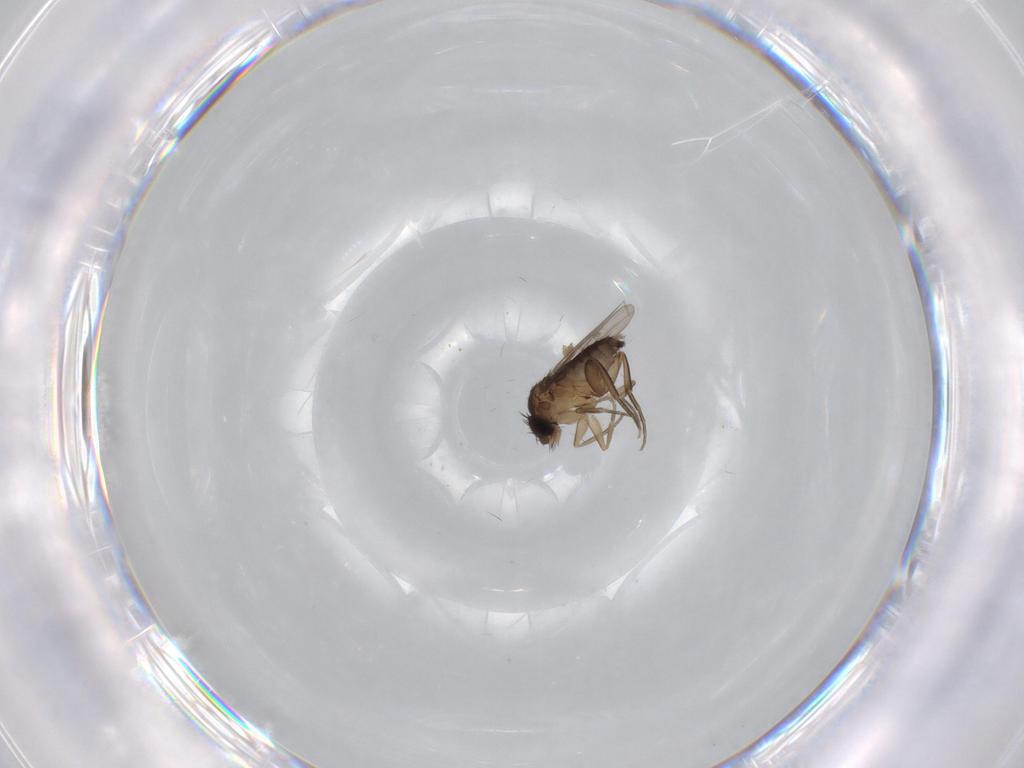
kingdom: Animalia
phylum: Arthropoda
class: Insecta
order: Diptera
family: Phoridae
